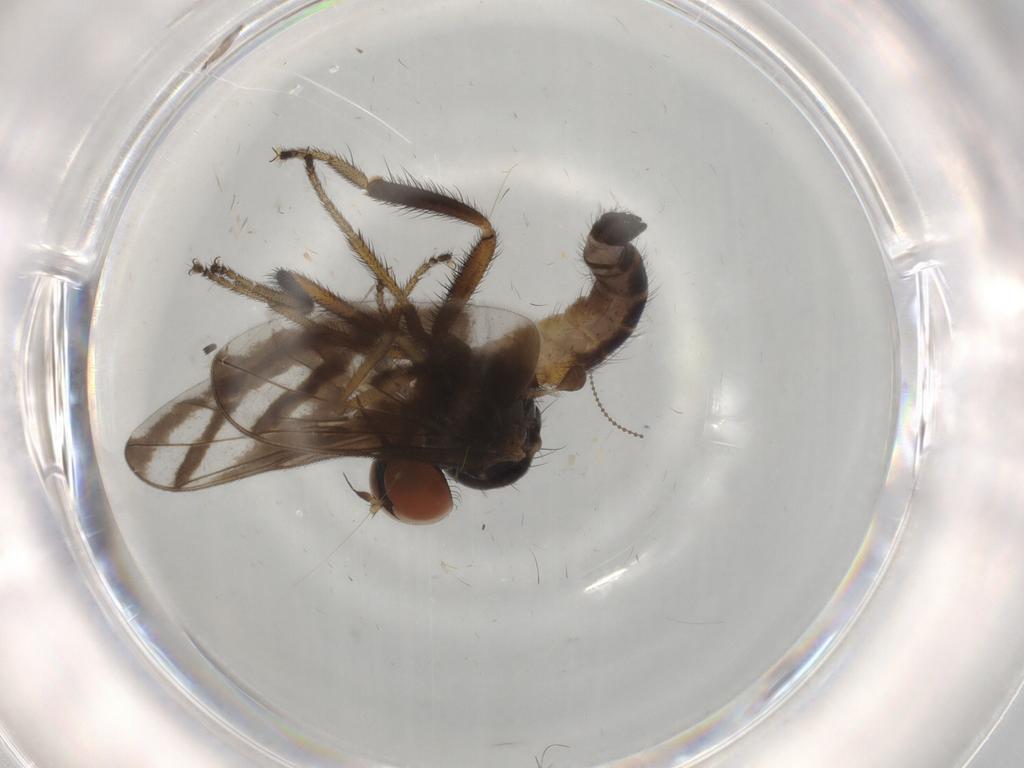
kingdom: Animalia
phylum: Arthropoda
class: Insecta
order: Diptera
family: Empididae
